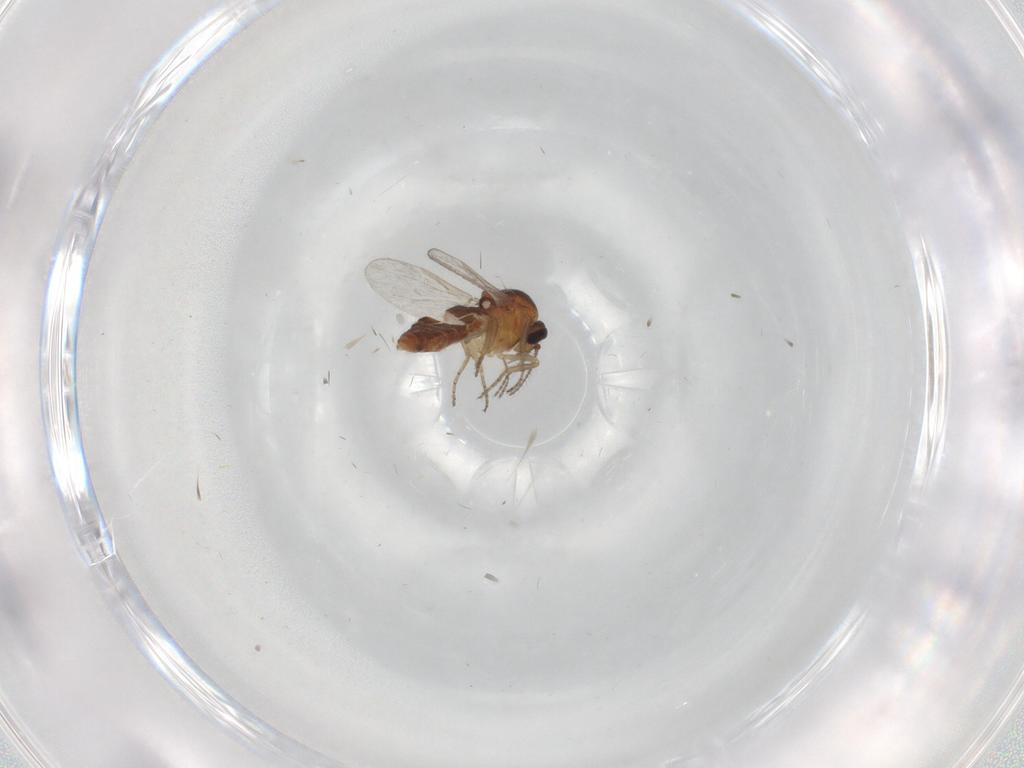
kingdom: Animalia
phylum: Arthropoda
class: Insecta
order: Diptera
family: Ceratopogonidae
